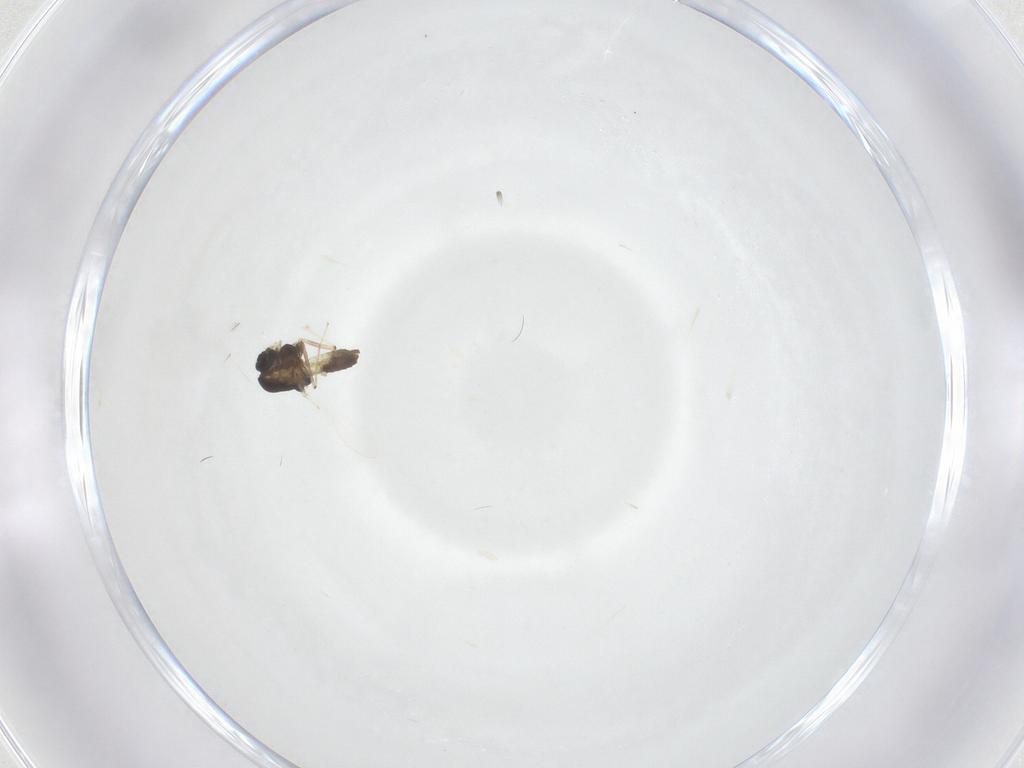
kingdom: Animalia
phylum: Arthropoda
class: Insecta
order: Diptera
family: Chironomidae
